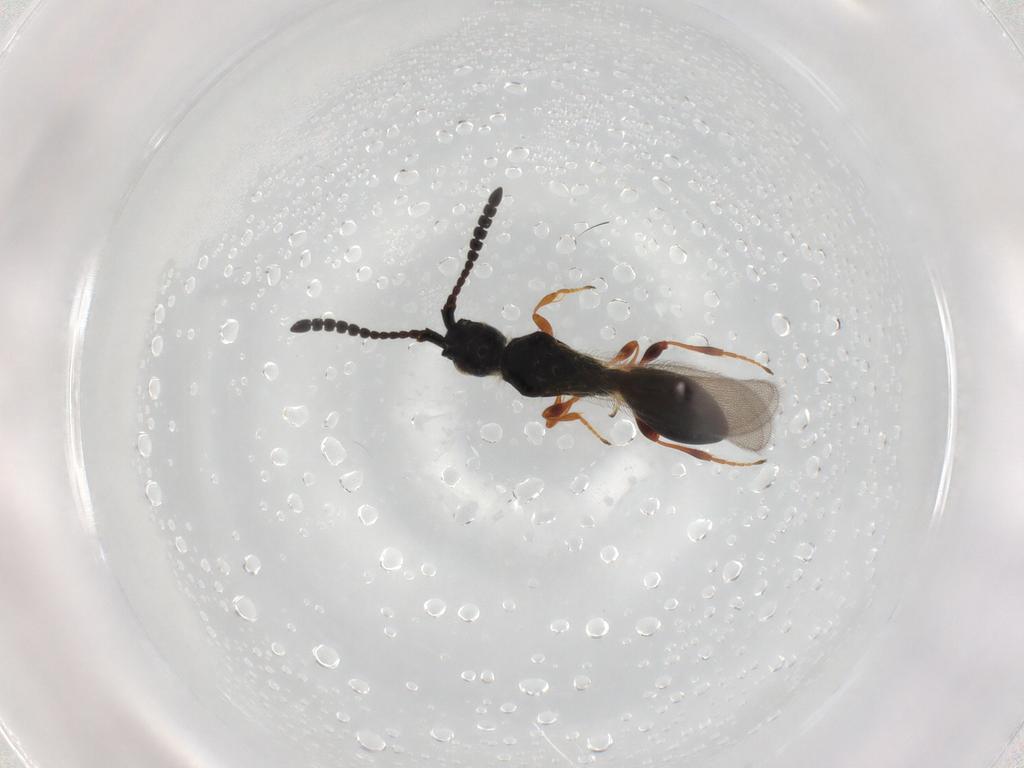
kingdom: Animalia
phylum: Arthropoda
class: Insecta
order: Hymenoptera
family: Diapriidae
